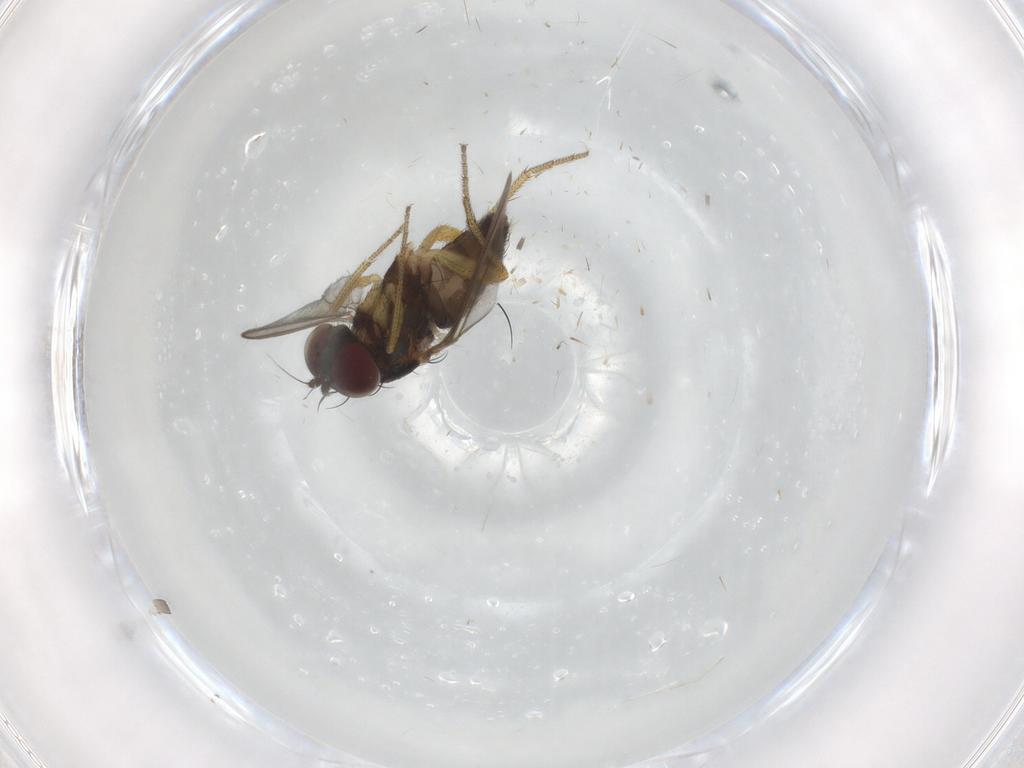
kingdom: Animalia
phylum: Arthropoda
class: Insecta
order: Diptera
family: Dolichopodidae
